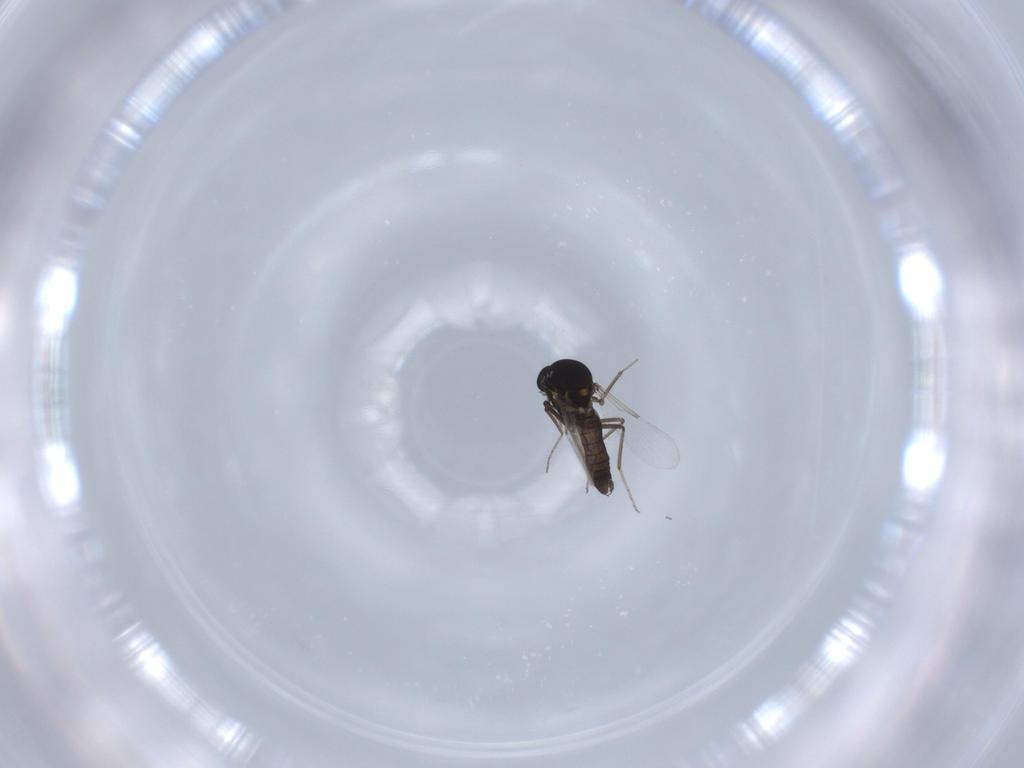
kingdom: Animalia
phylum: Arthropoda
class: Insecta
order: Diptera
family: Ceratopogonidae
